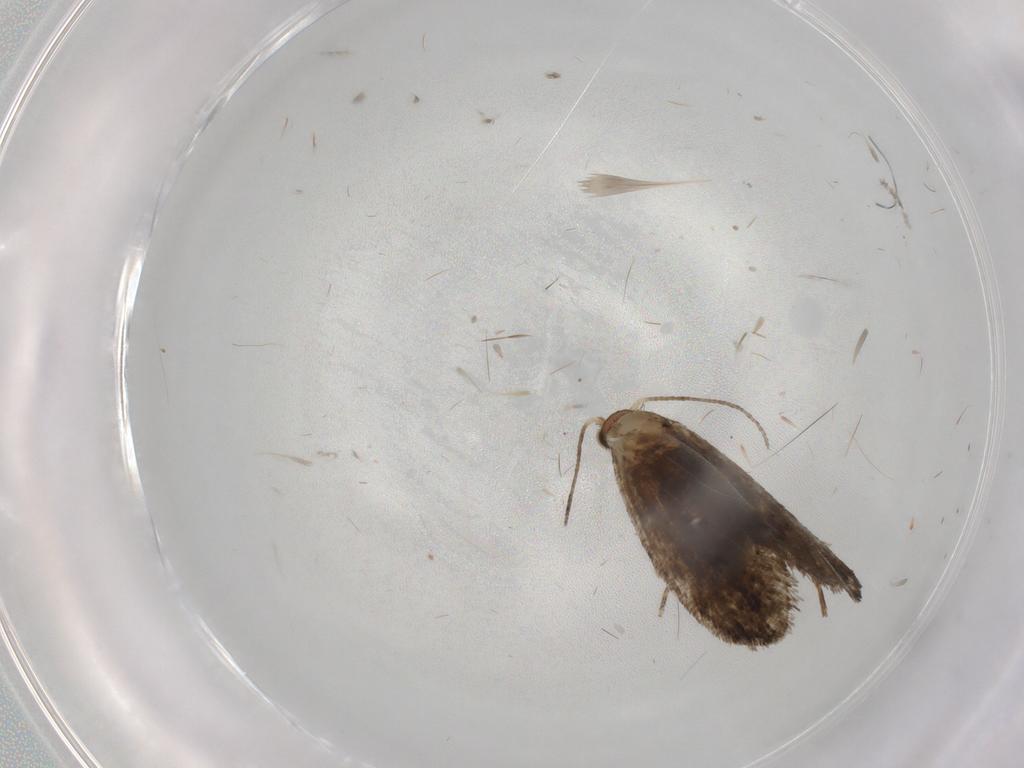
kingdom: Animalia
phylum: Arthropoda
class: Insecta
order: Lepidoptera
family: Tineidae
